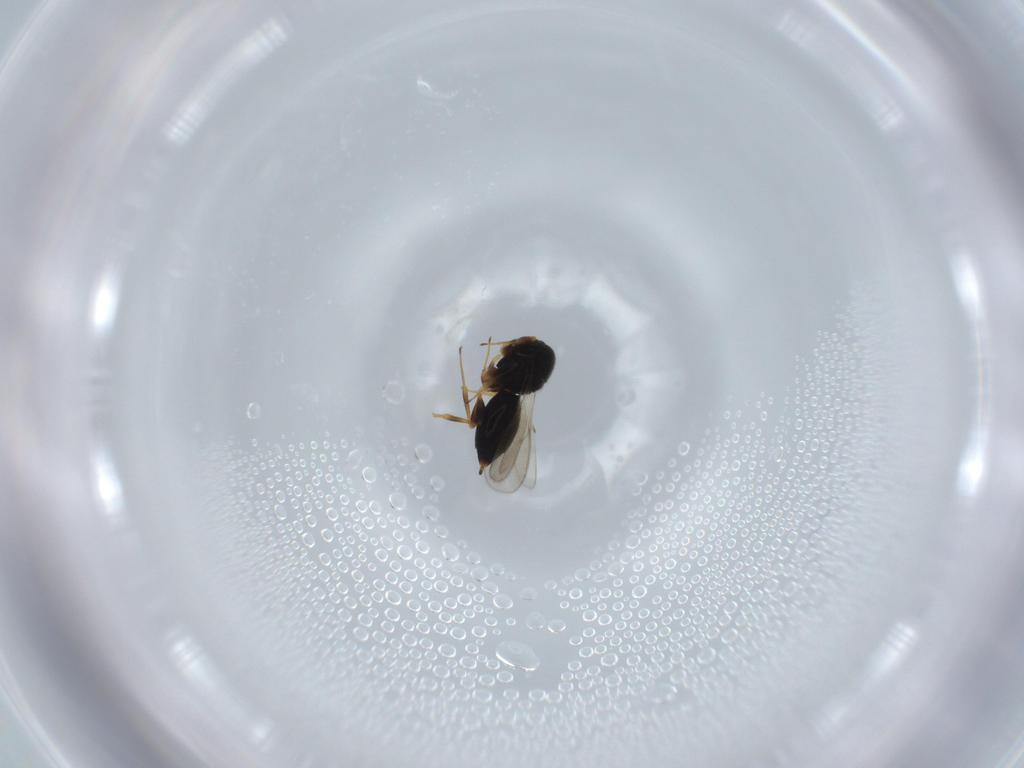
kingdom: Animalia
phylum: Arthropoda
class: Insecta
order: Hymenoptera
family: Scelionidae
